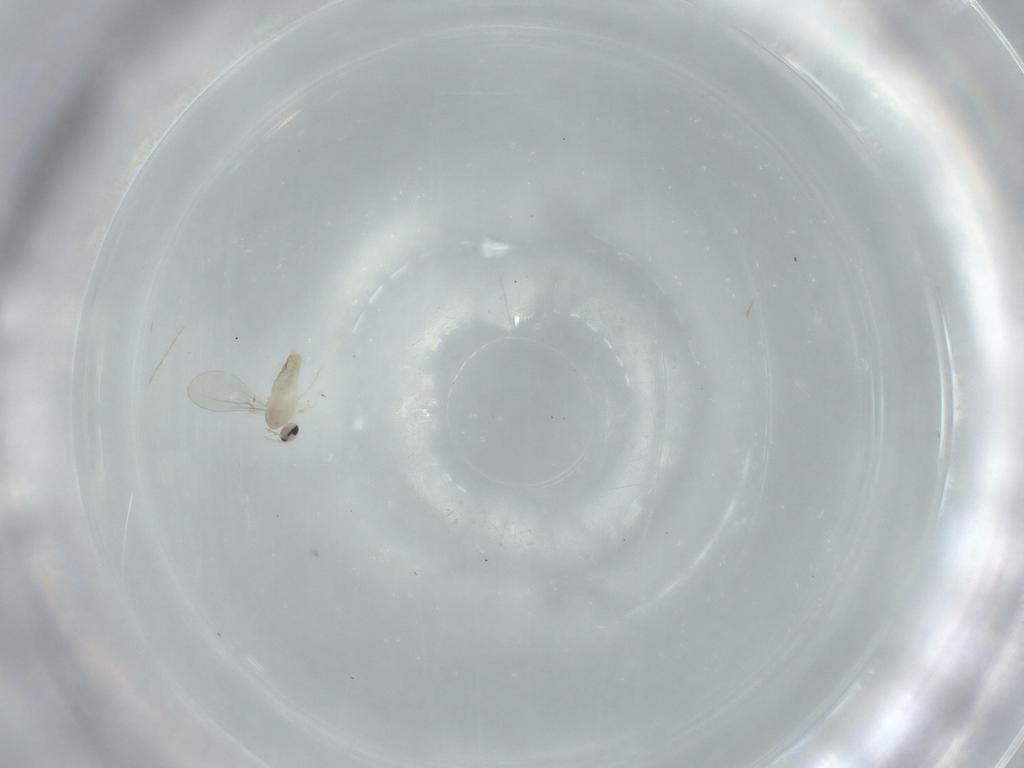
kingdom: Animalia
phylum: Arthropoda
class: Insecta
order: Diptera
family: Cecidomyiidae
